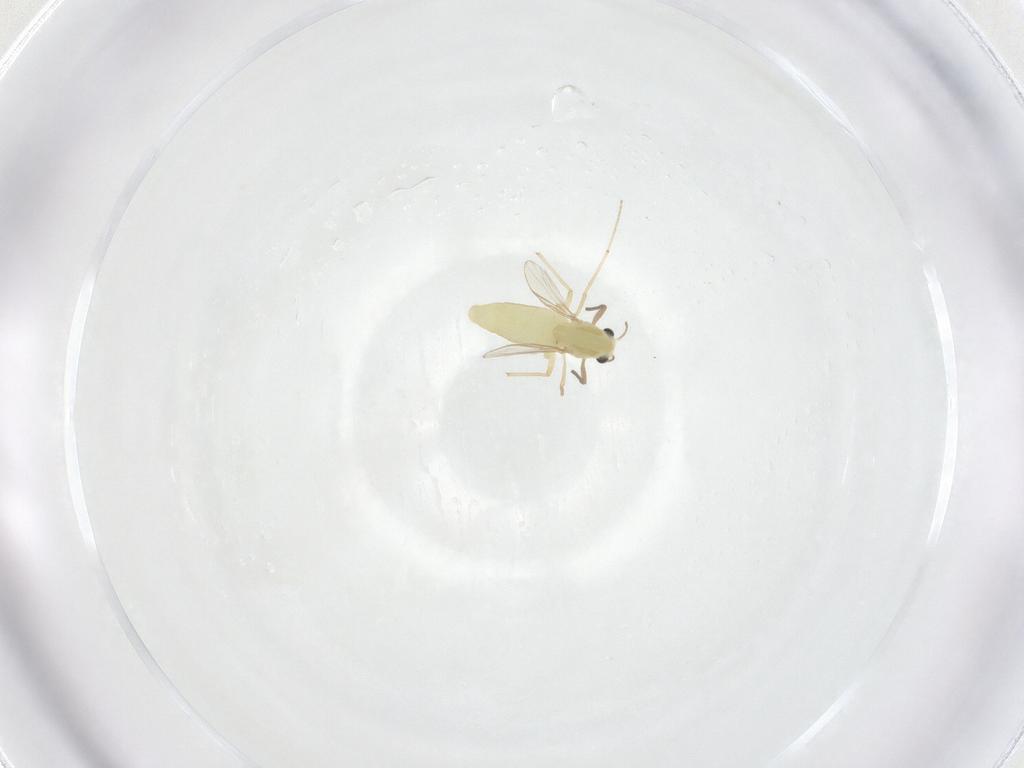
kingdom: Animalia
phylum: Arthropoda
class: Insecta
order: Diptera
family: Chironomidae
